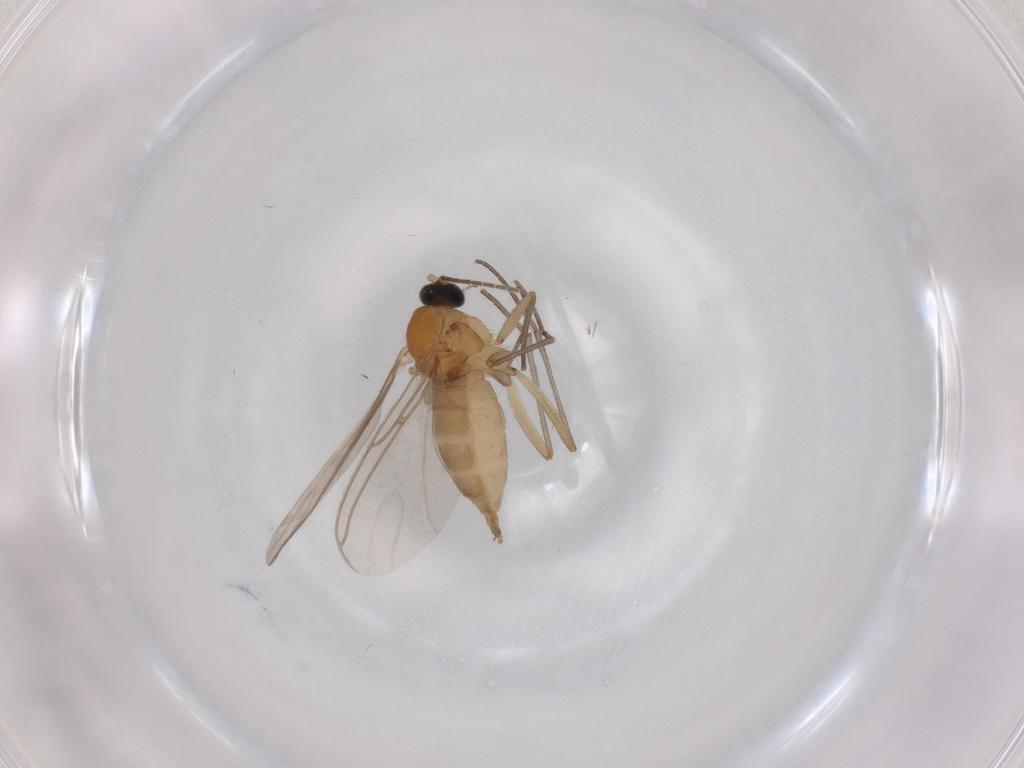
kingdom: Animalia
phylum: Arthropoda
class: Insecta
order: Diptera
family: Sciaridae
